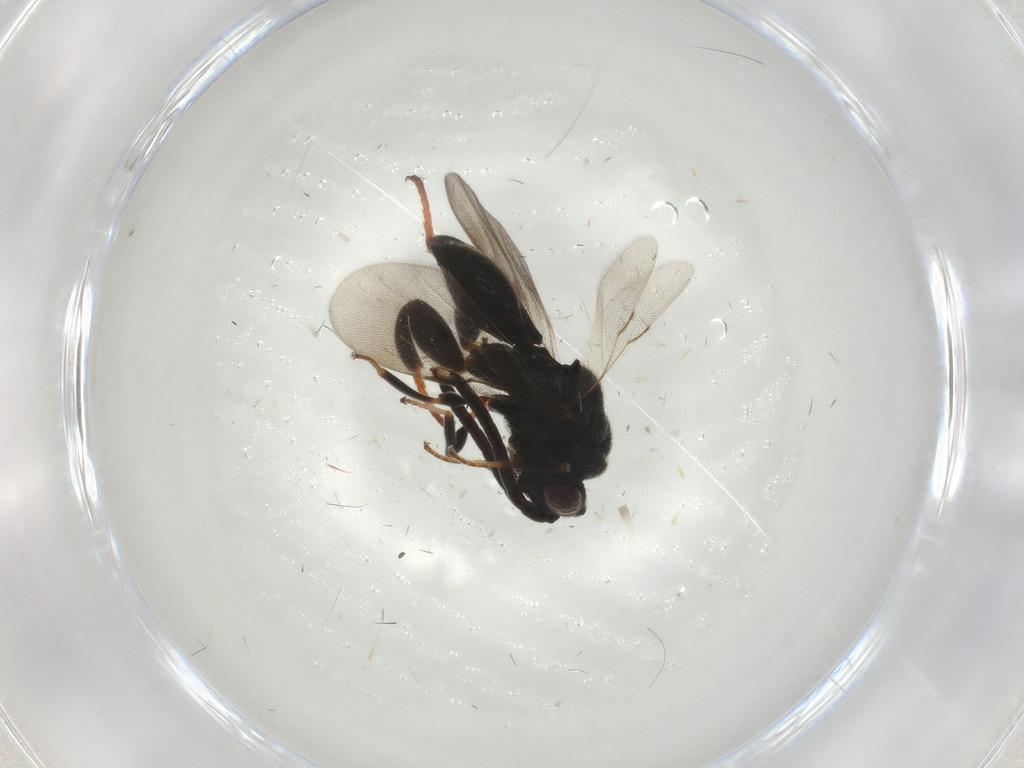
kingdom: Animalia
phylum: Arthropoda
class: Insecta
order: Hymenoptera
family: Chalcididae
